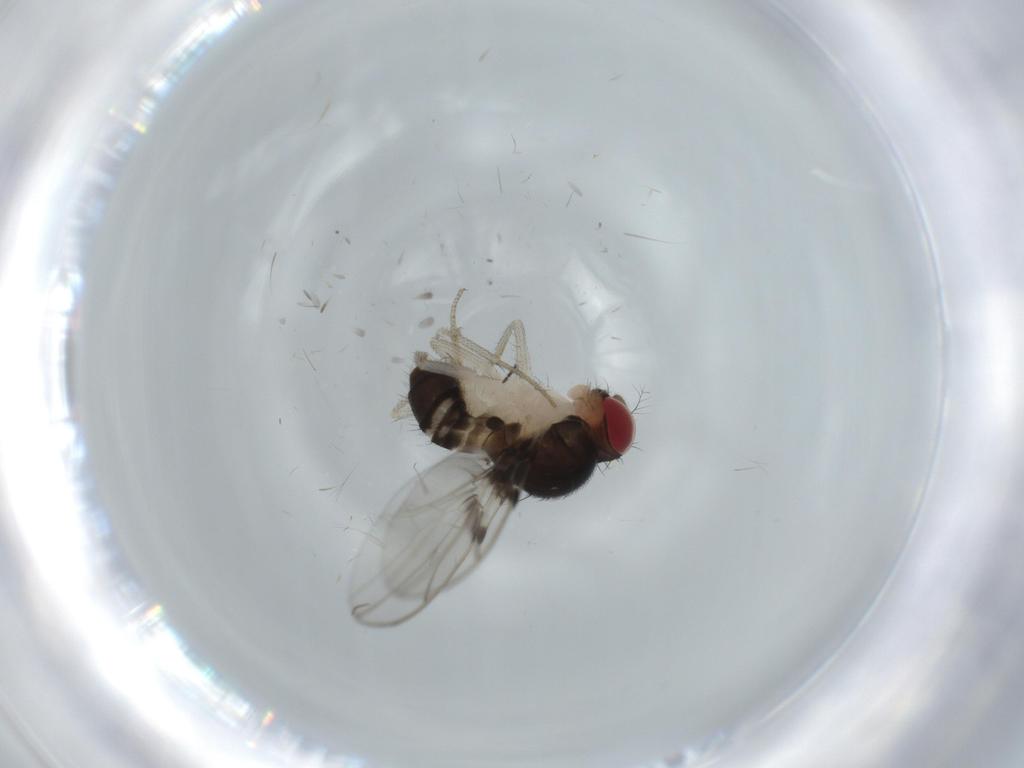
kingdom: Animalia
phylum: Arthropoda
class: Insecta
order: Diptera
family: Drosophilidae
